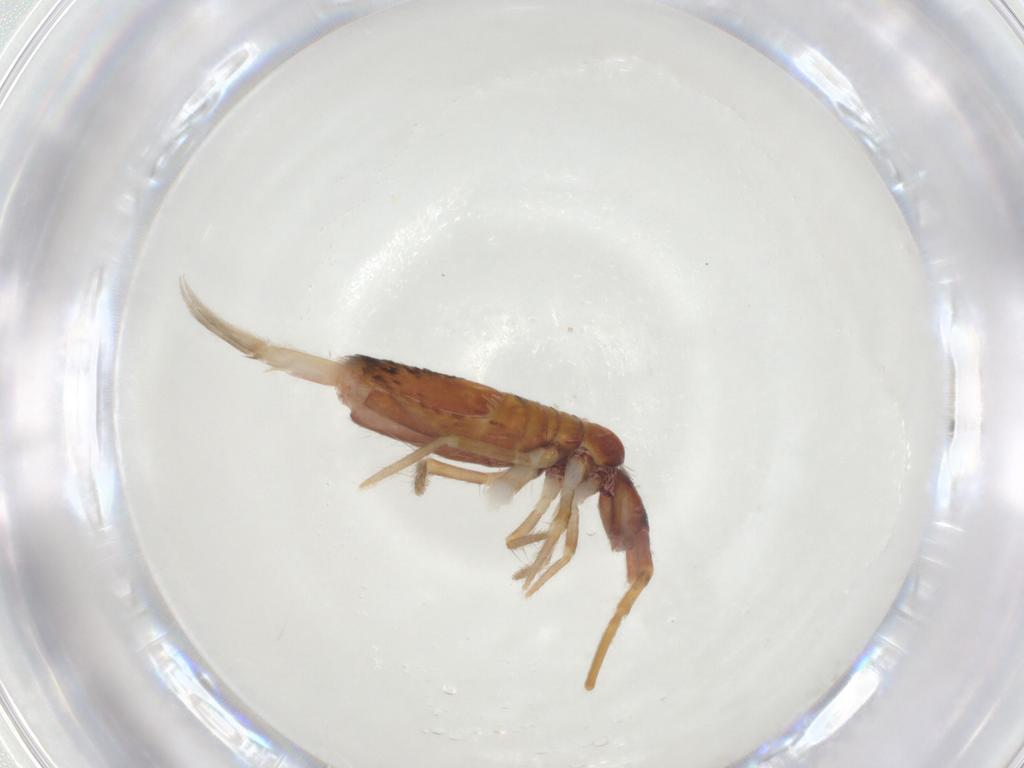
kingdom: Animalia
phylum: Arthropoda
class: Collembola
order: Entomobryomorpha
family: Entomobryidae
